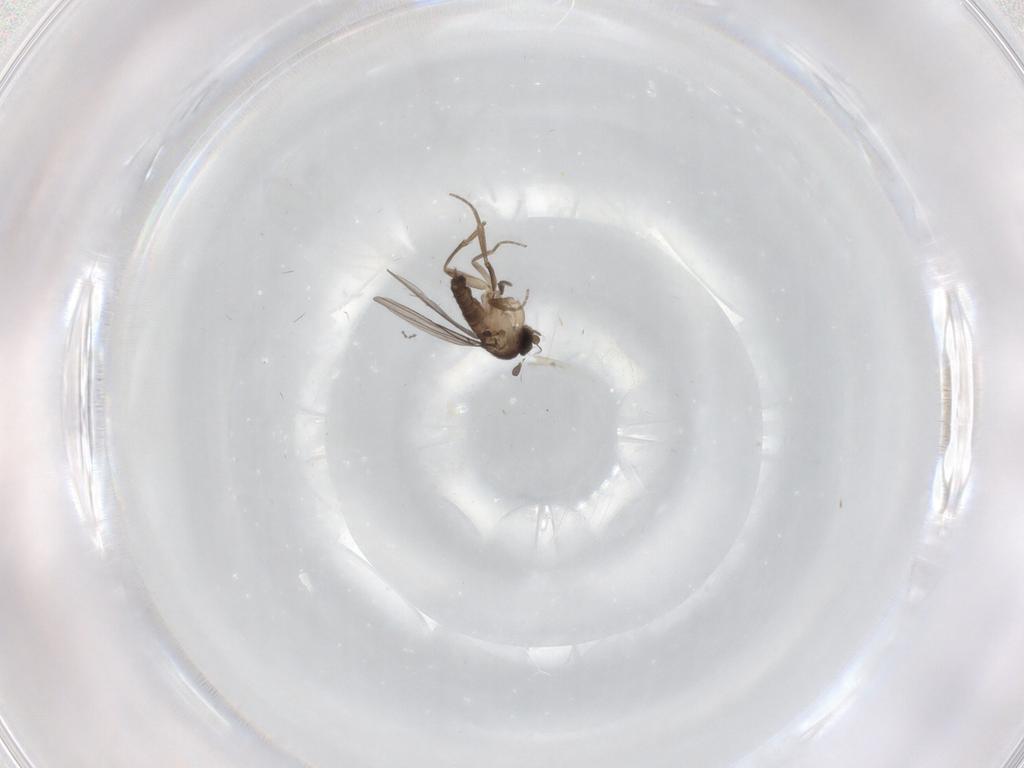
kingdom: Animalia
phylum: Arthropoda
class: Insecta
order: Diptera
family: Cecidomyiidae
